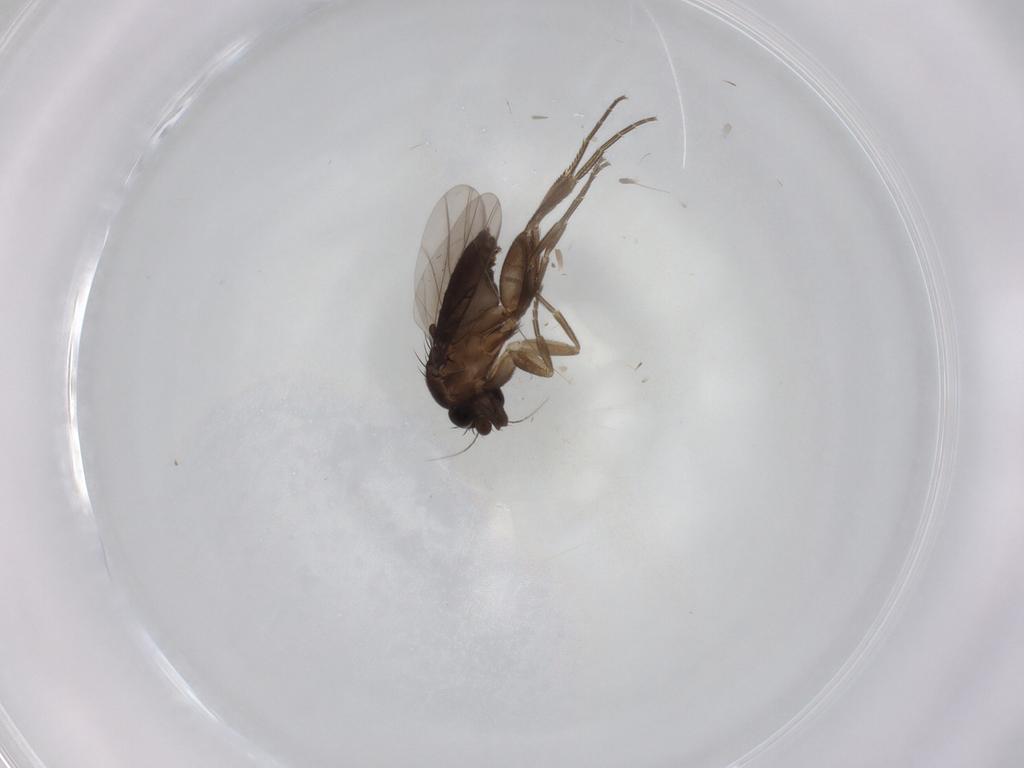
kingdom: Animalia
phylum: Arthropoda
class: Insecta
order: Diptera
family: Phoridae
